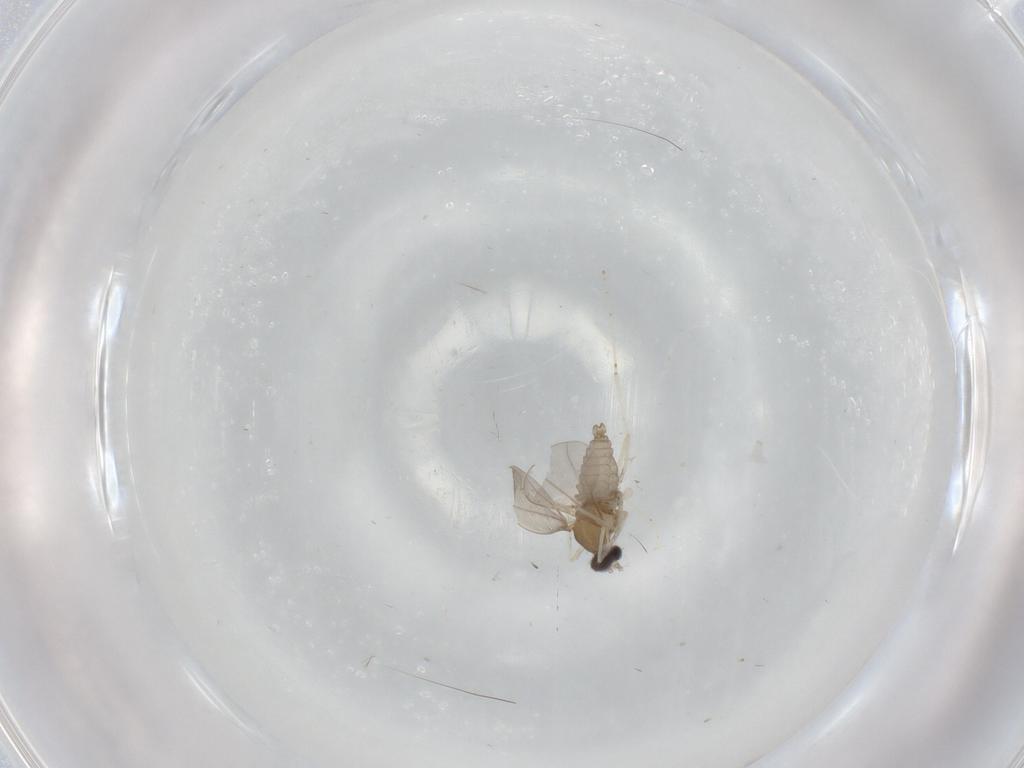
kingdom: Animalia
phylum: Arthropoda
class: Insecta
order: Diptera
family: Cecidomyiidae
